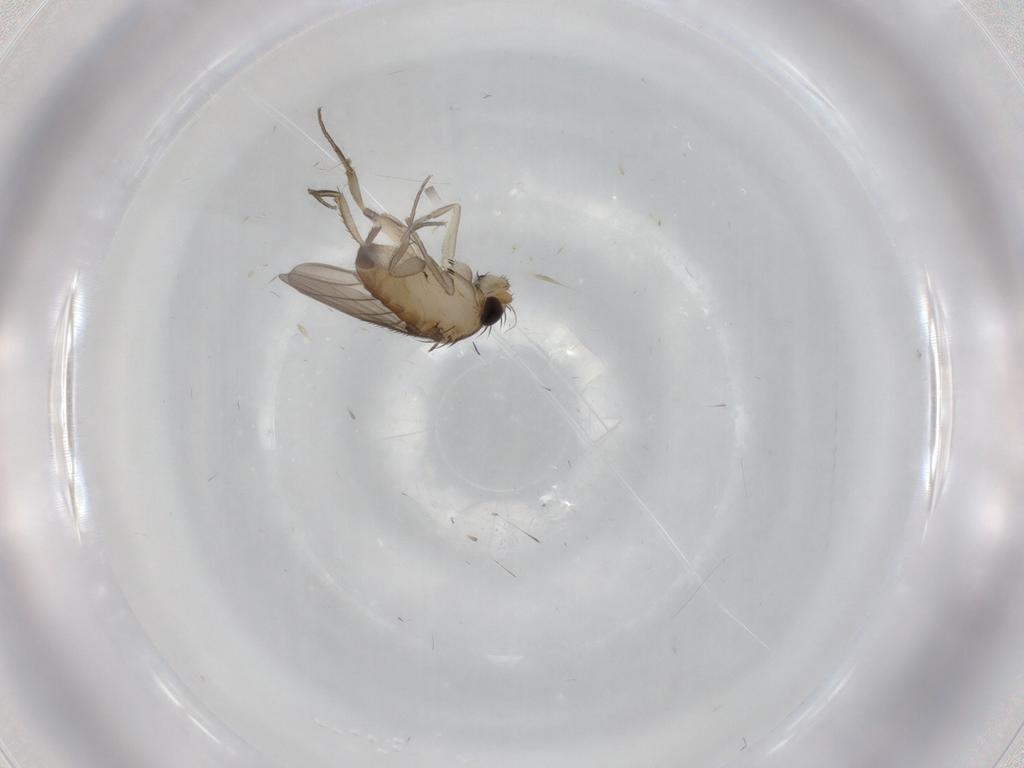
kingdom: Animalia
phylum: Arthropoda
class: Insecta
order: Diptera
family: Phoridae
